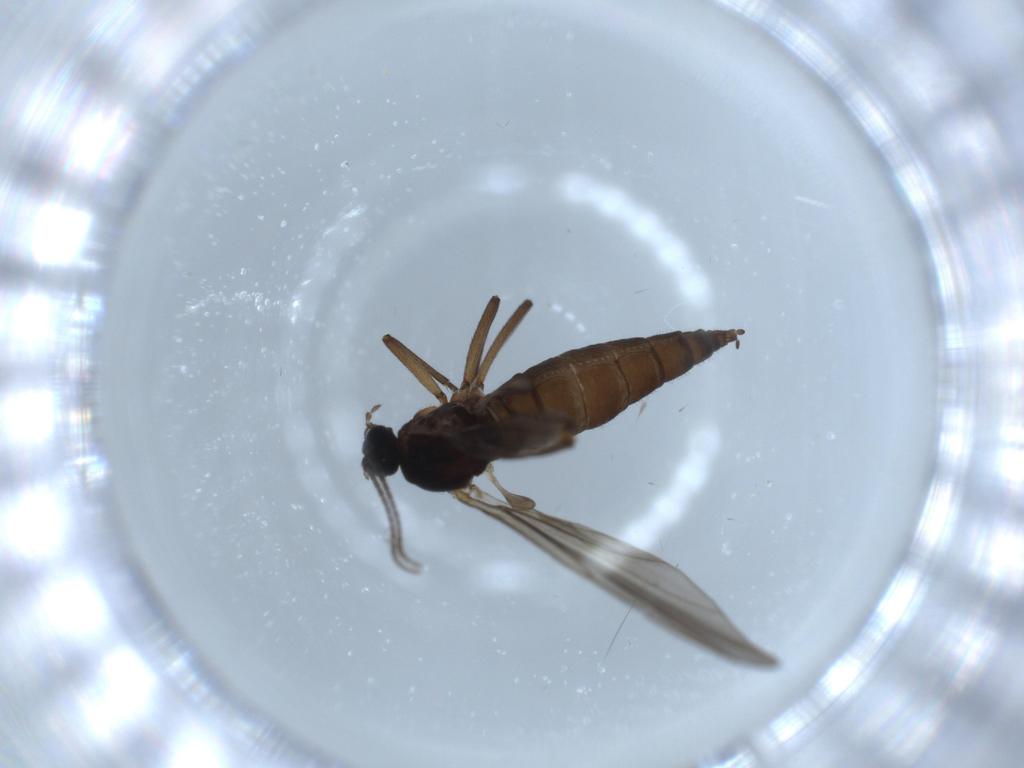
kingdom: Animalia
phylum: Arthropoda
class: Insecta
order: Diptera
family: Sciaridae
